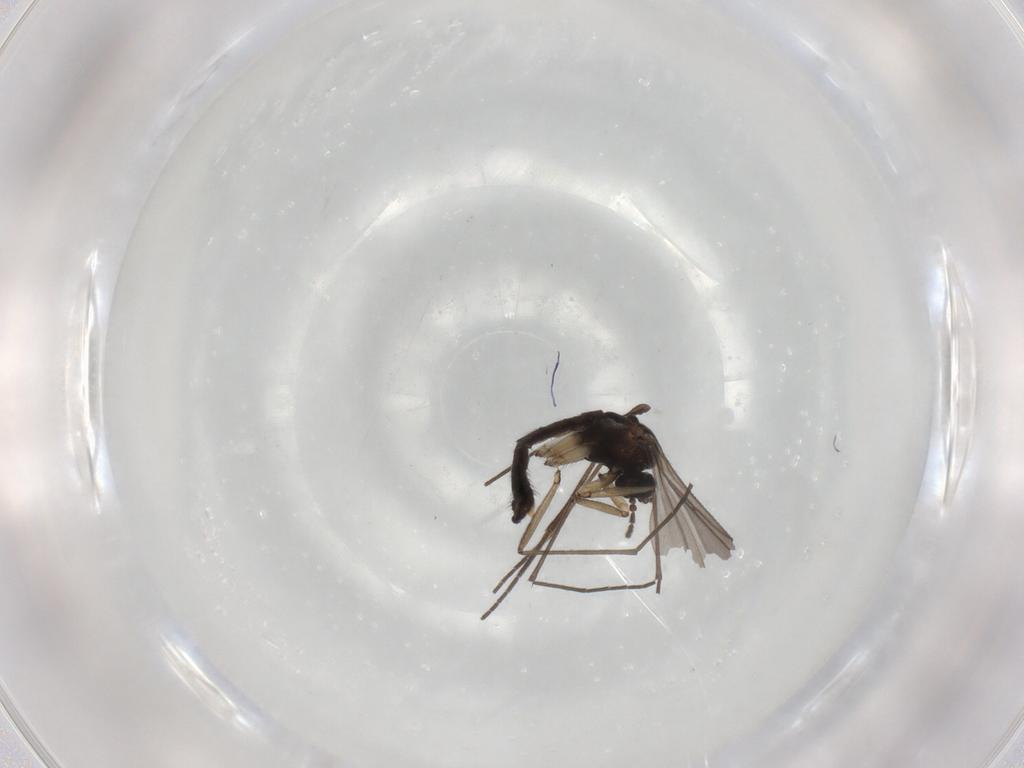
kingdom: Animalia
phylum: Arthropoda
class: Insecta
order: Diptera
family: Sciaridae
